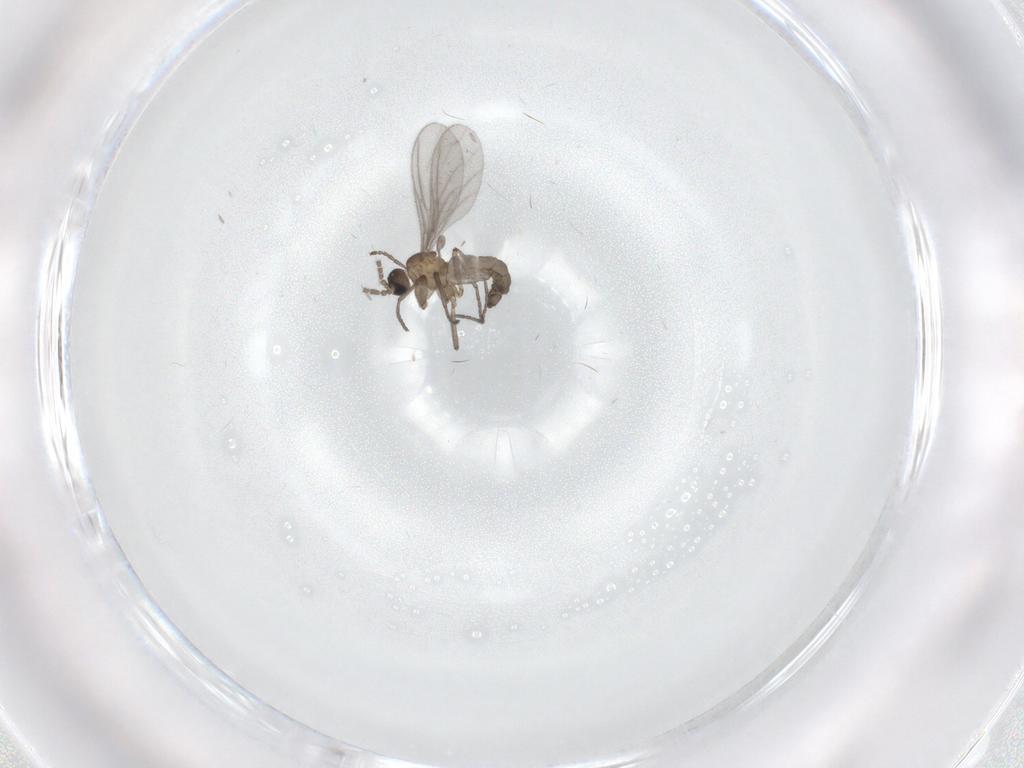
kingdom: Animalia
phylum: Arthropoda
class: Insecta
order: Diptera
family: Sciaridae
